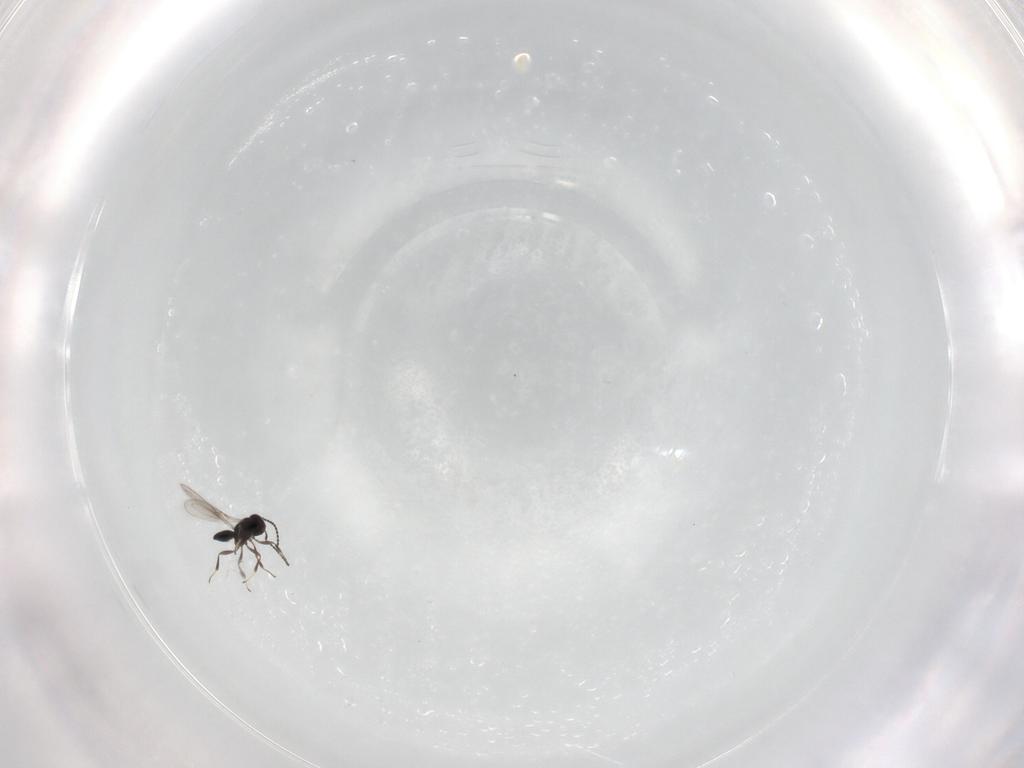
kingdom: Animalia
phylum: Arthropoda
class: Insecta
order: Hymenoptera
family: Scelionidae
